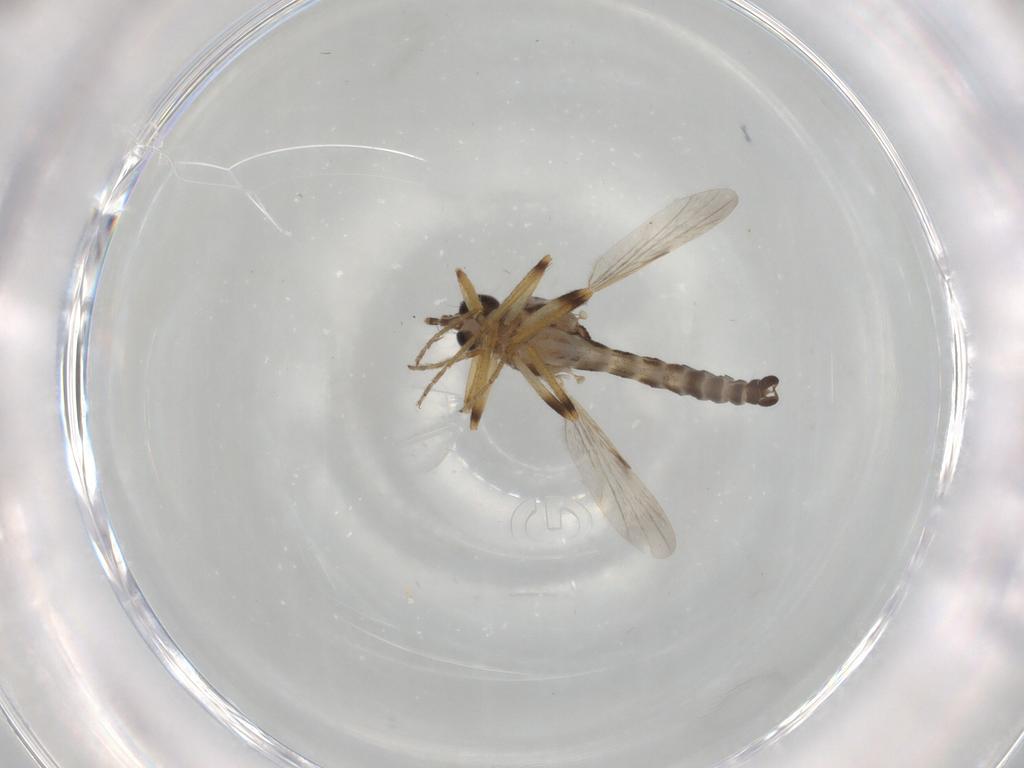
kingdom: Animalia
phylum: Arthropoda
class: Insecta
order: Diptera
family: Ceratopogonidae
